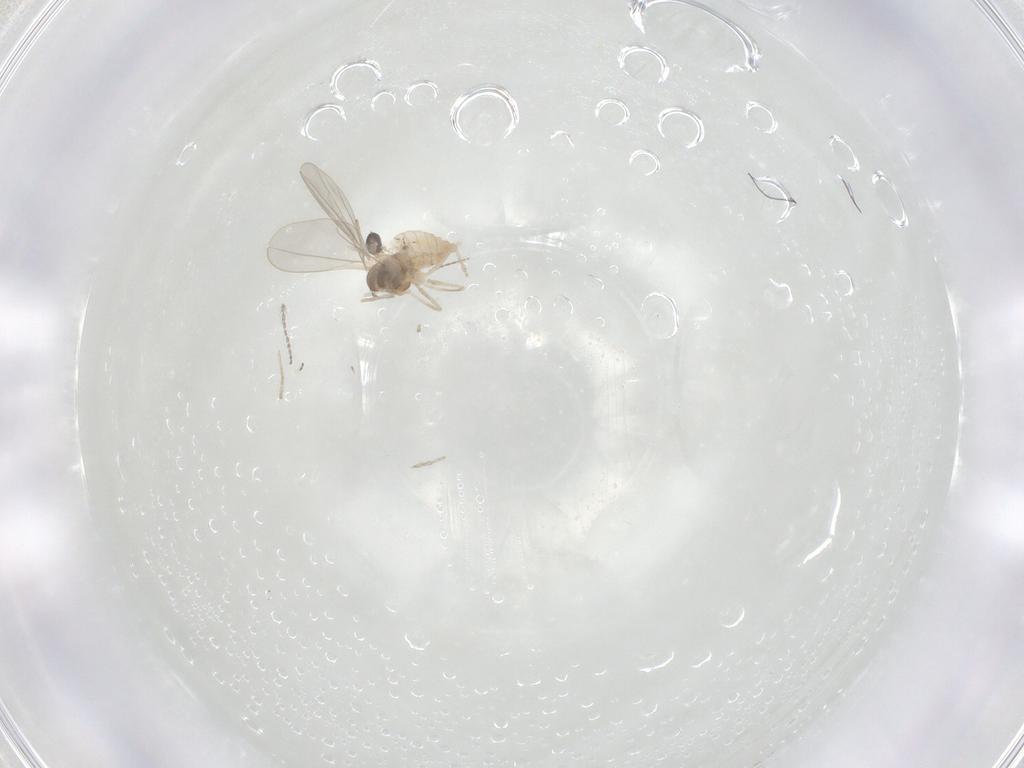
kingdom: Animalia
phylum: Arthropoda
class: Insecta
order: Diptera
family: Ceratopogonidae
